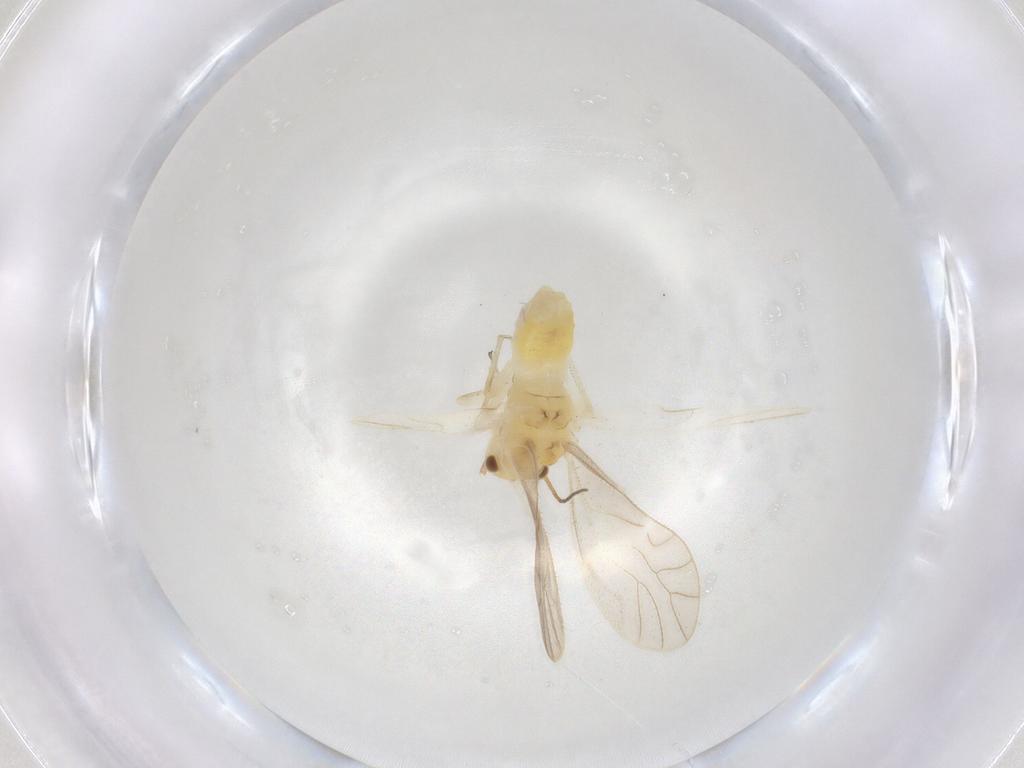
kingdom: Animalia
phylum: Arthropoda
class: Insecta
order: Psocodea
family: Caeciliusidae
